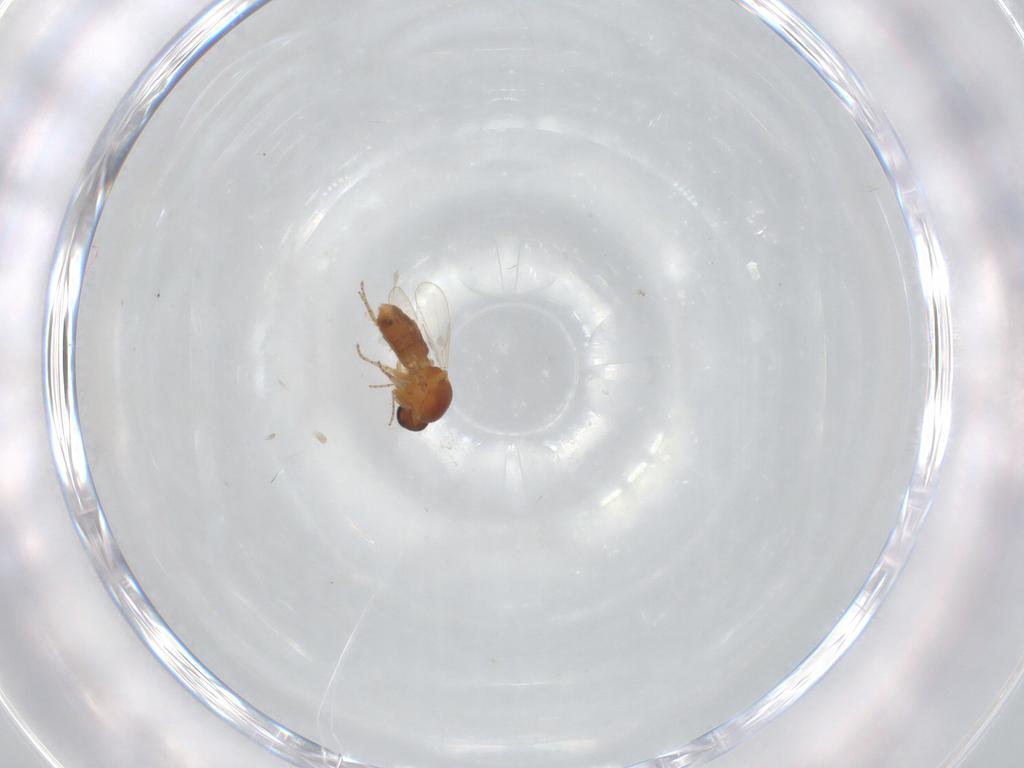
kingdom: Animalia
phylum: Arthropoda
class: Insecta
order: Diptera
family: Ceratopogonidae
